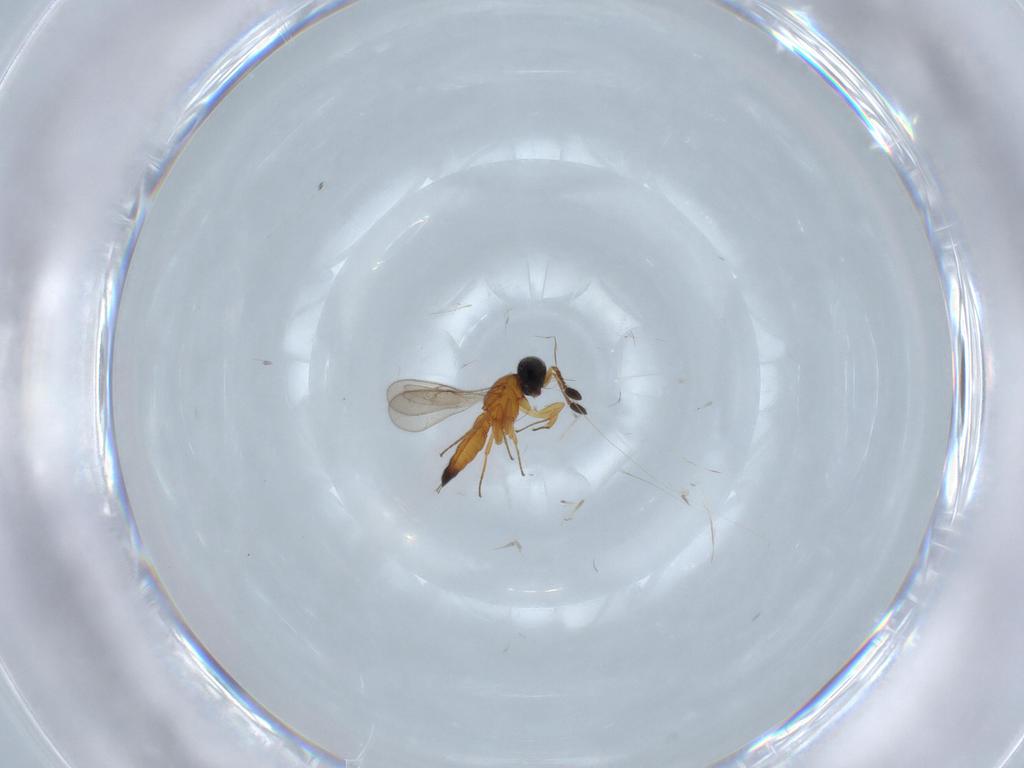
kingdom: Animalia
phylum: Arthropoda
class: Insecta
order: Hymenoptera
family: Scelionidae
